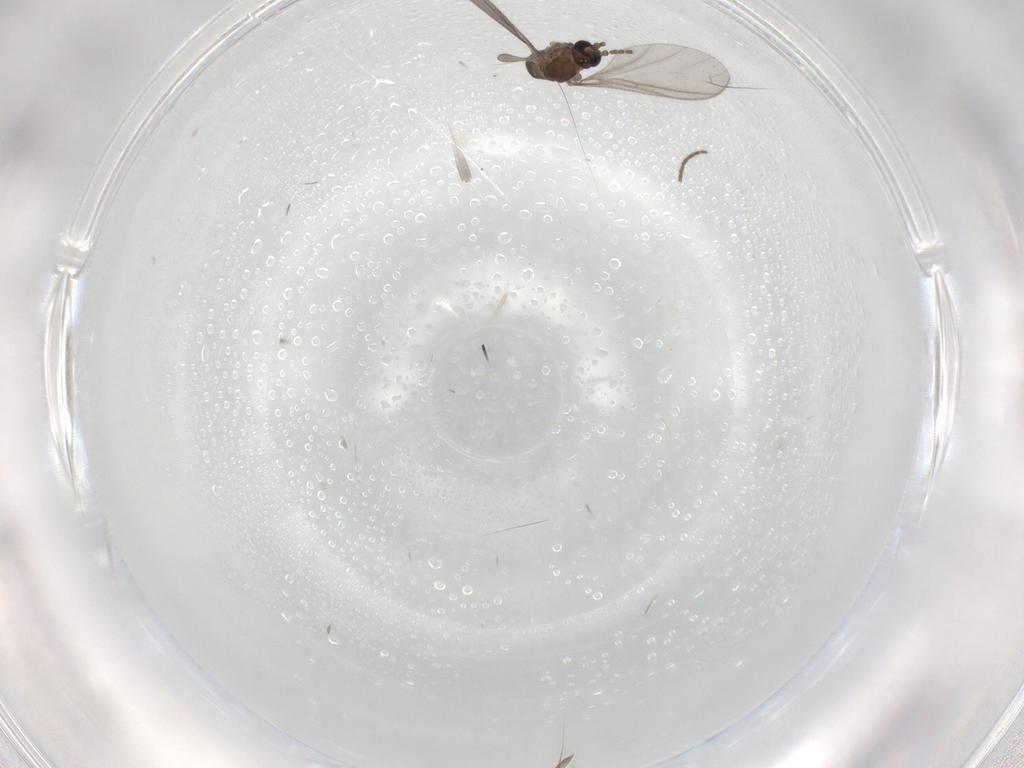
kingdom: Animalia
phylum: Arthropoda
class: Insecta
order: Diptera
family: Sciaridae
